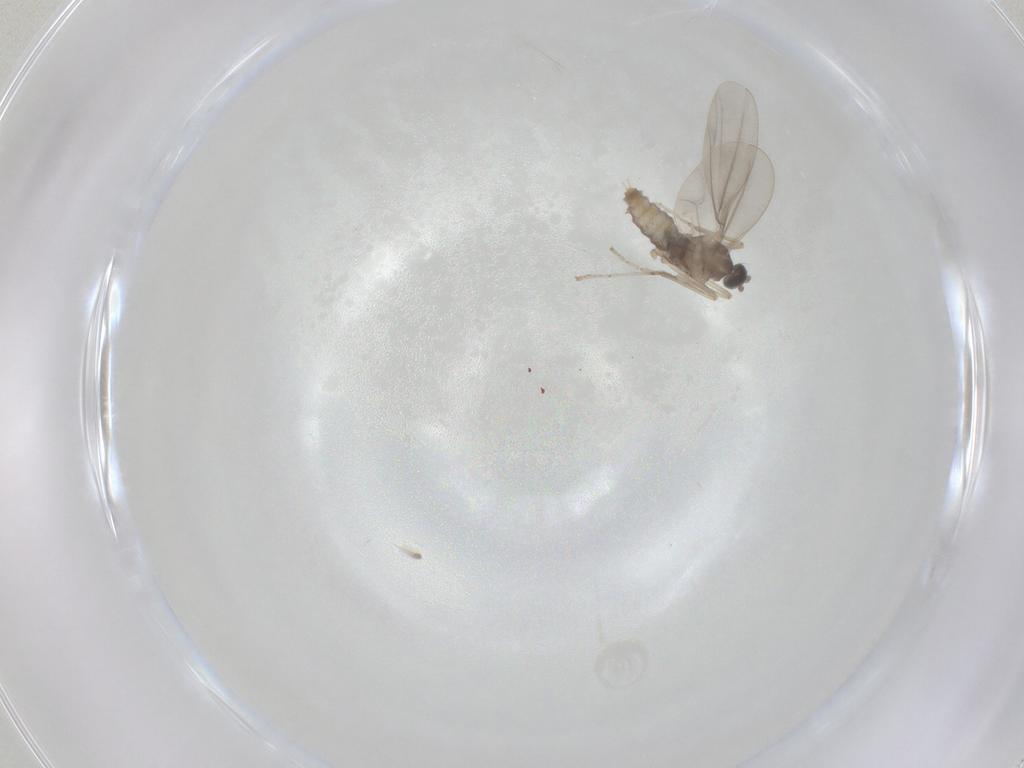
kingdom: Animalia
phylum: Arthropoda
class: Insecta
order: Diptera
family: Cecidomyiidae
